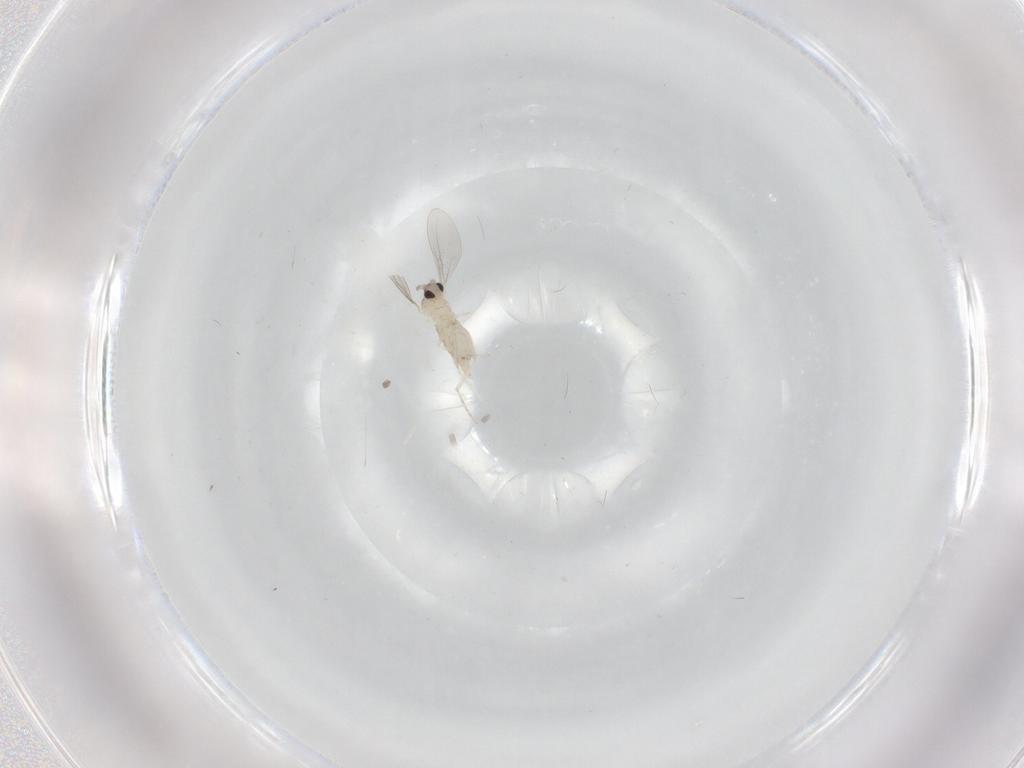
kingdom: Animalia
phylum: Arthropoda
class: Insecta
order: Diptera
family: Cecidomyiidae
